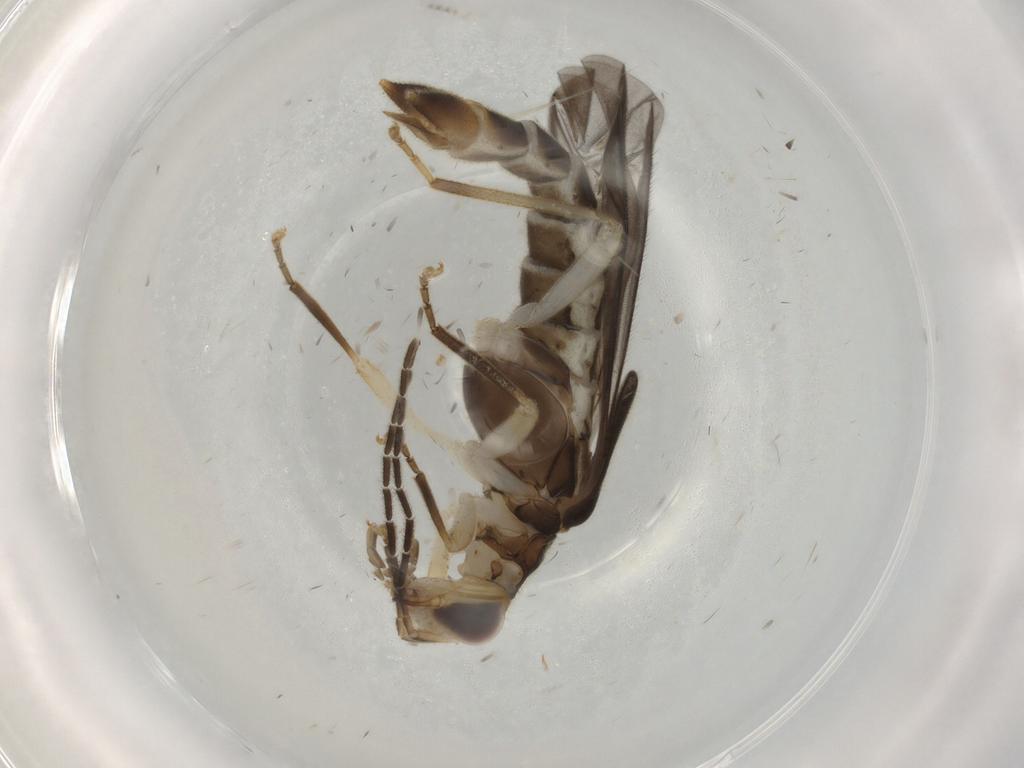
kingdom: Animalia
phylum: Arthropoda
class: Insecta
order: Coleoptera
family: Cantharidae
